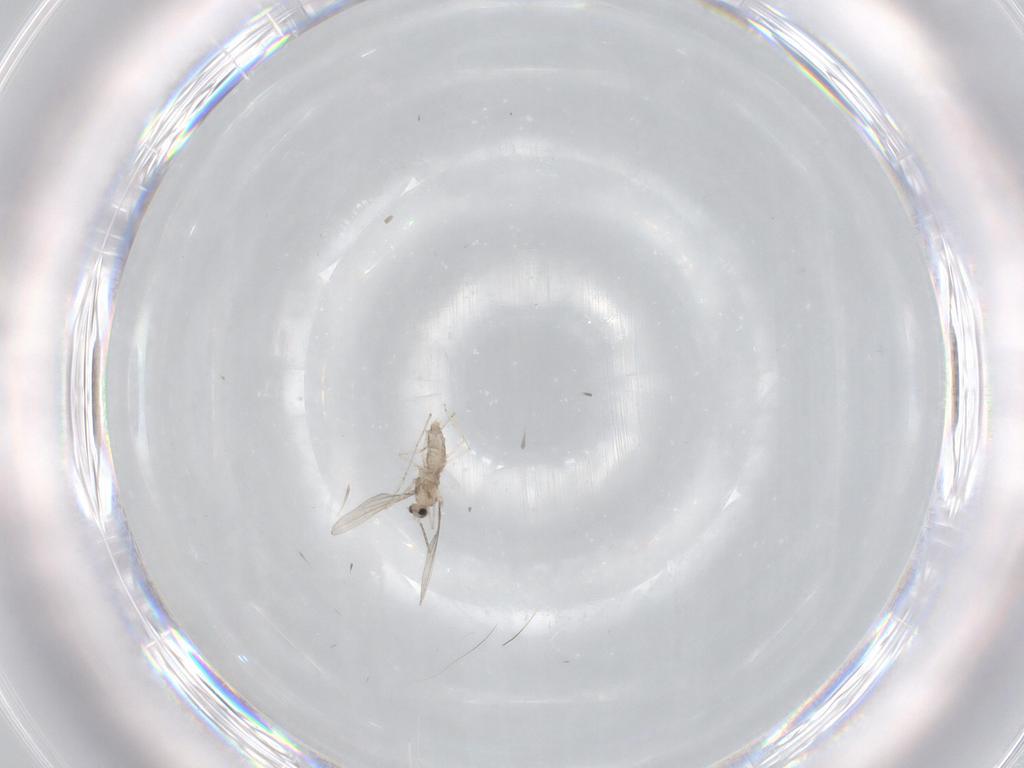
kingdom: Animalia
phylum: Arthropoda
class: Insecta
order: Diptera
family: Cecidomyiidae
